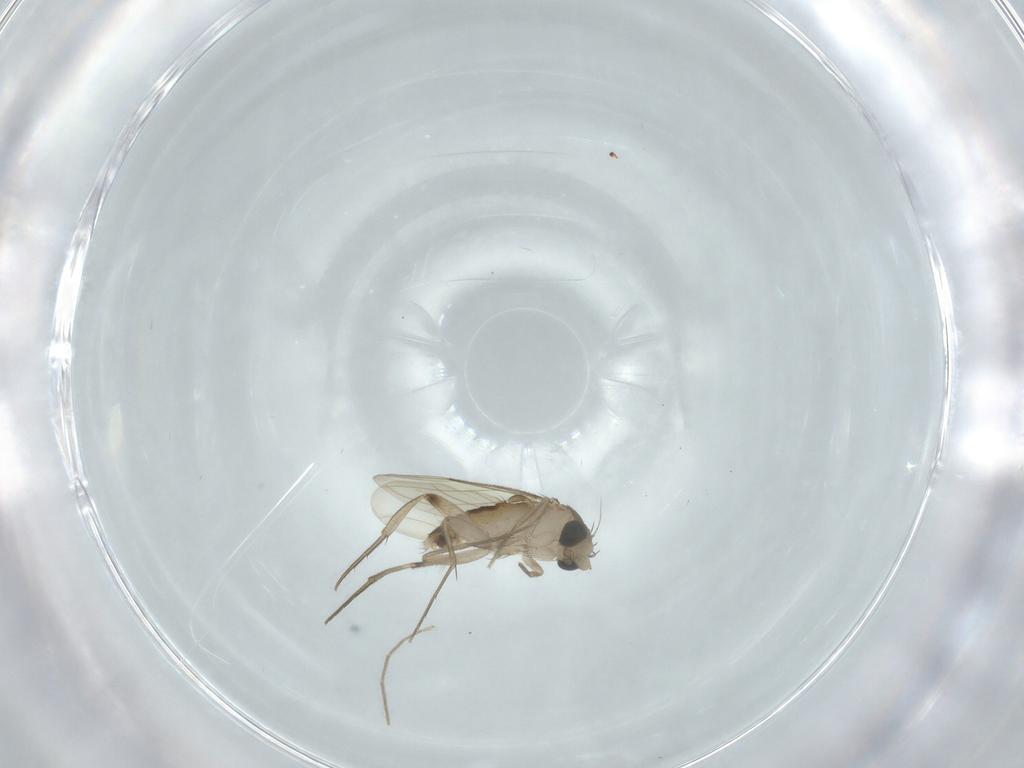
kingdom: Animalia
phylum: Arthropoda
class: Insecta
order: Diptera
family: Chironomidae
